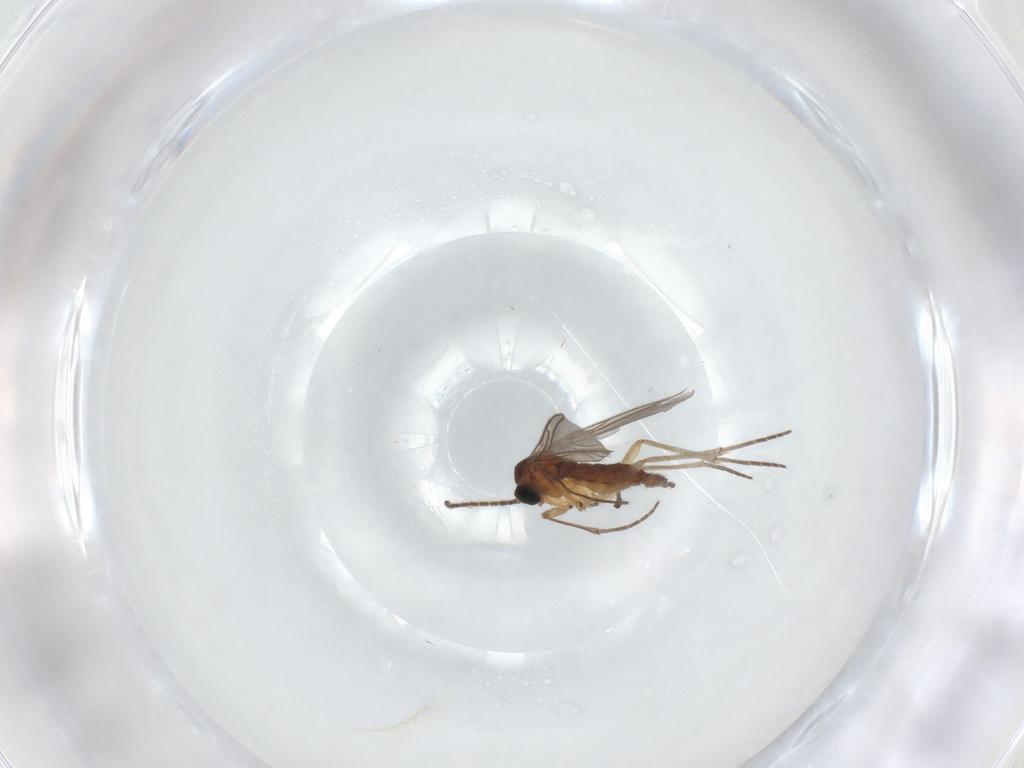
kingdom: Animalia
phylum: Arthropoda
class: Insecta
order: Diptera
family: Sciaridae
